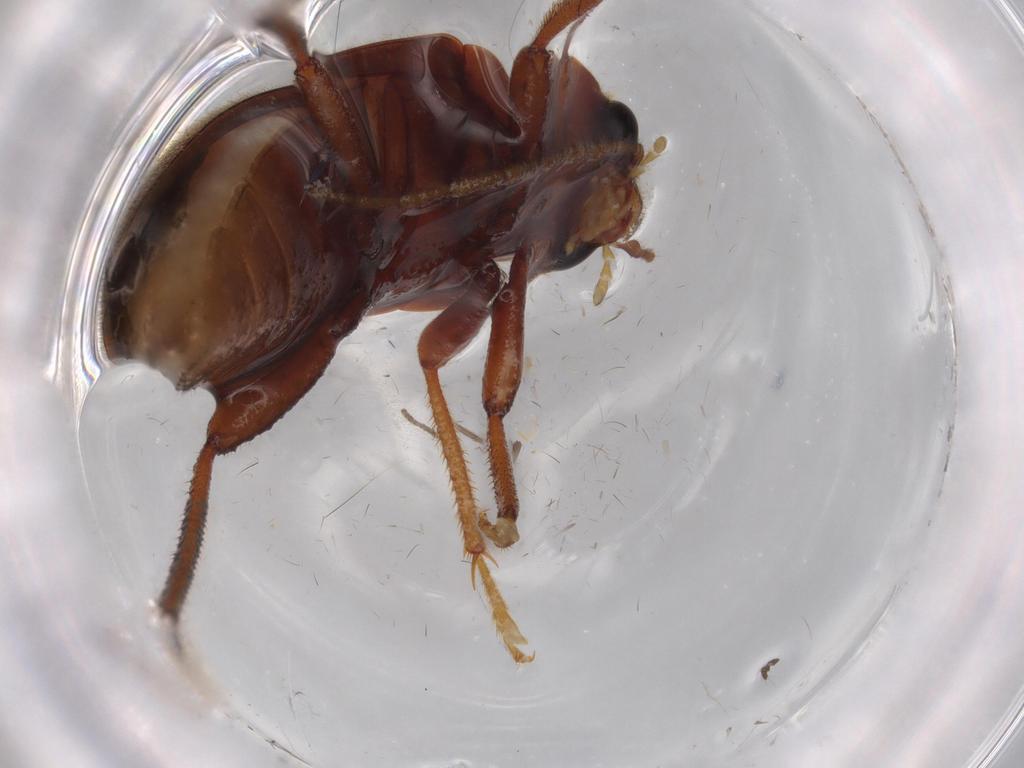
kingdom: Animalia
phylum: Arthropoda
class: Insecta
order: Coleoptera
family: Ptilodactylidae
